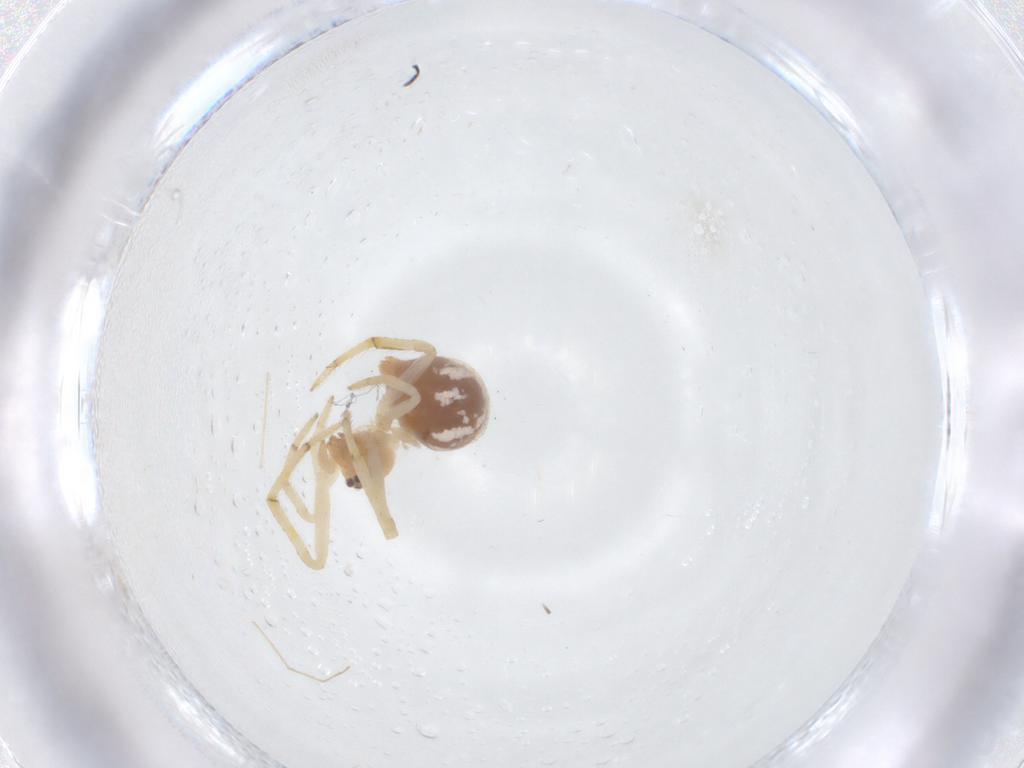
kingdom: Animalia
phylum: Arthropoda
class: Arachnida
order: Araneae
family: Theridiidae
